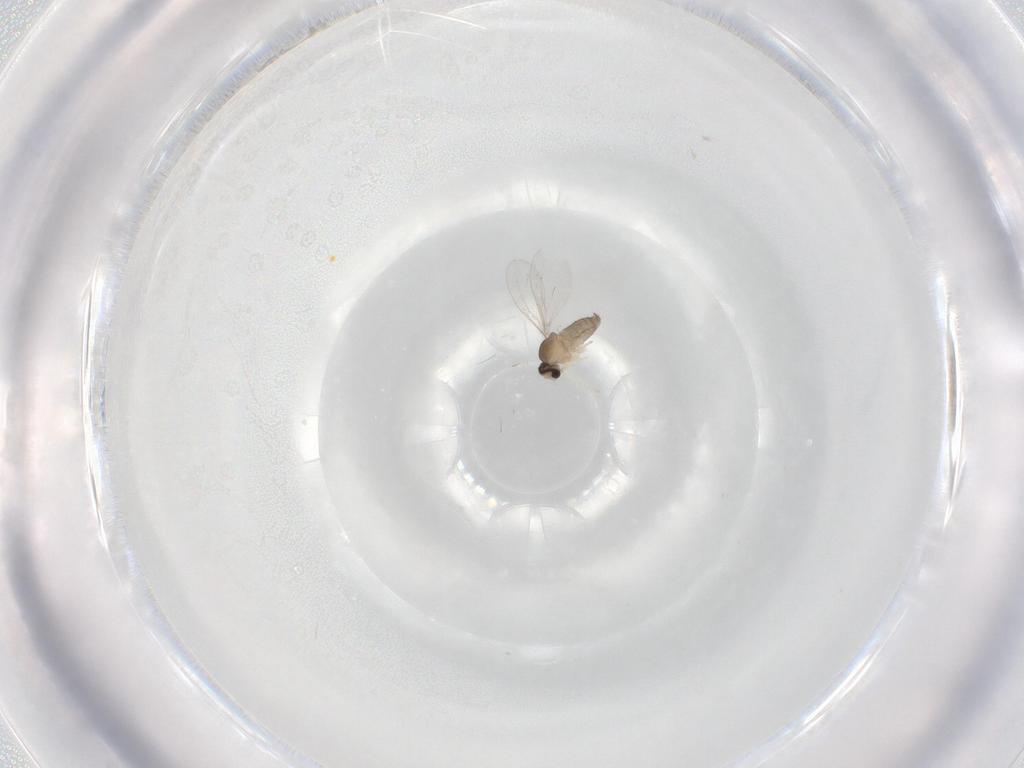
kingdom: Animalia
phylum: Arthropoda
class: Insecta
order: Diptera
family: Cecidomyiidae
